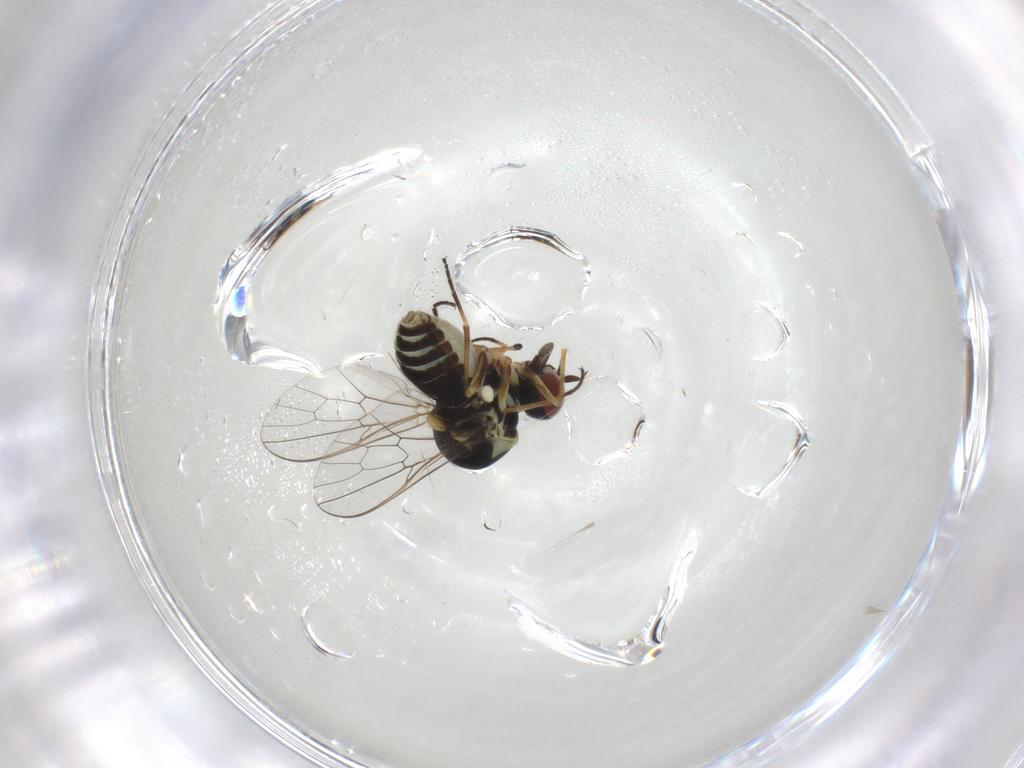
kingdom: Animalia
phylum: Arthropoda
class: Insecta
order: Diptera
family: Bombyliidae
